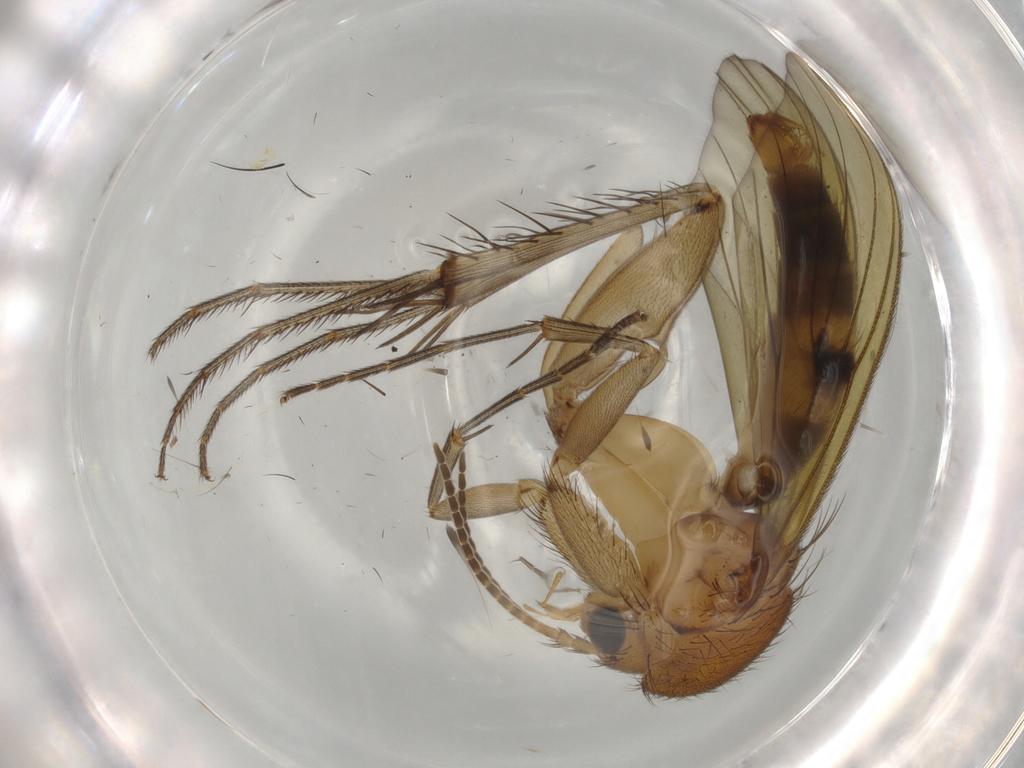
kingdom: Animalia
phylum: Arthropoda
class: Insecta
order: Diptera
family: Mycetophilidae
